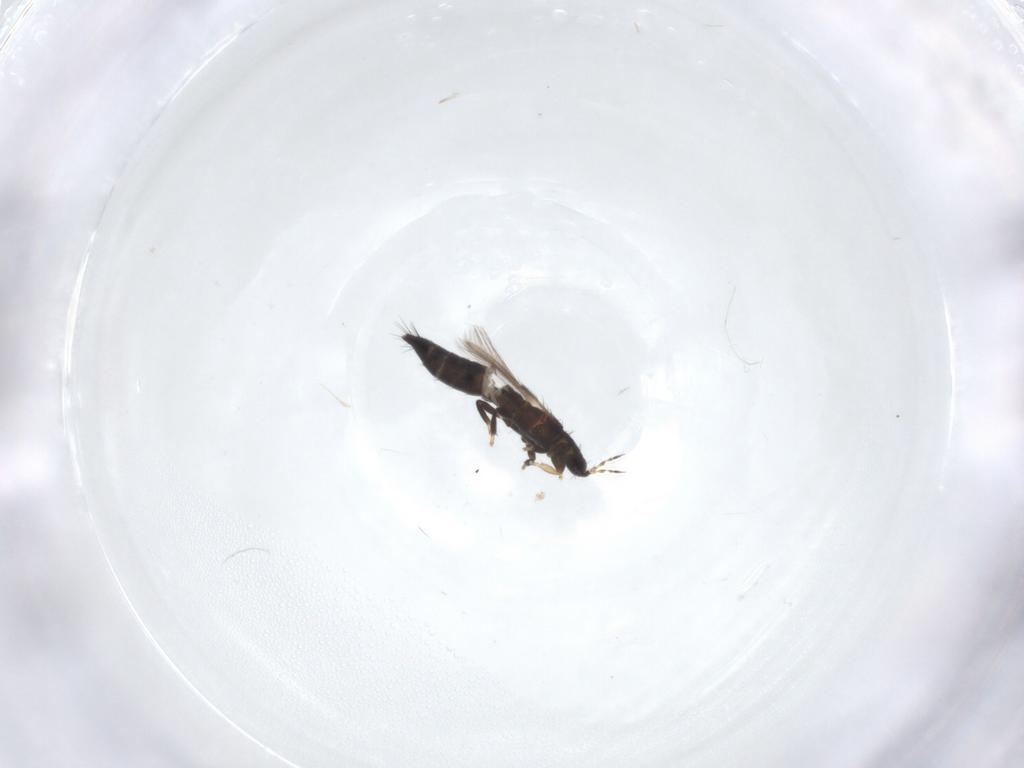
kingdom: Animalia
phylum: Arthropoda
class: Insecta
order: Thysanoptera
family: Thripidae
